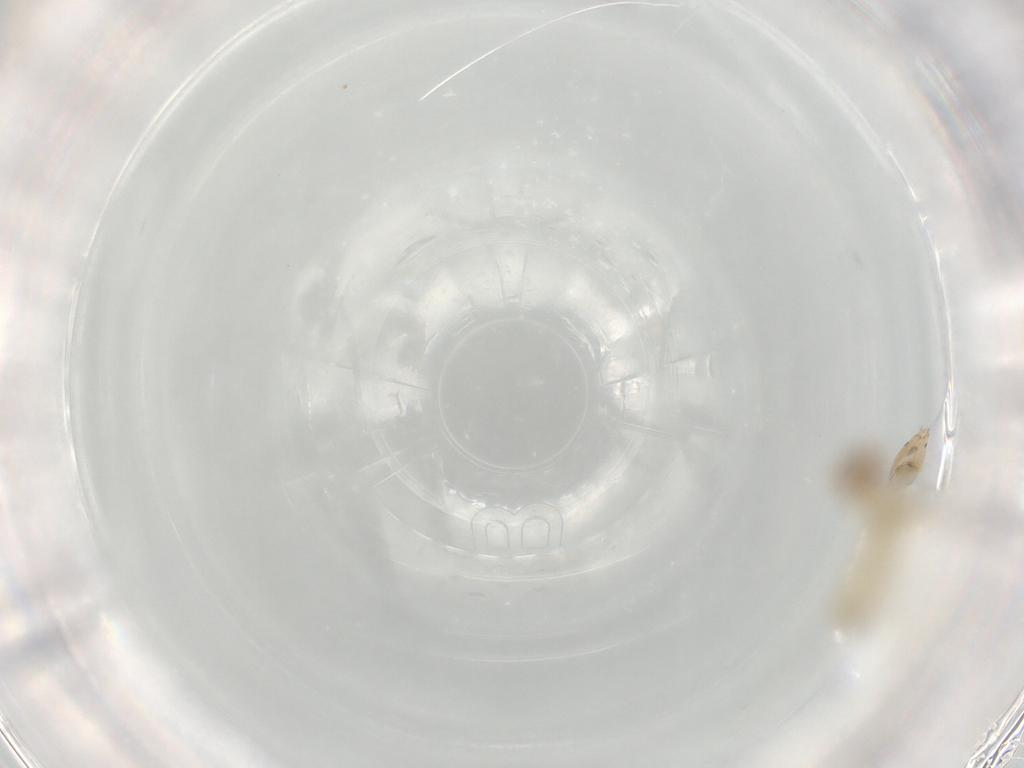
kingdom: Animalia
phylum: Arthropoda
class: Insecta
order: Diptera
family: Chironomidae
